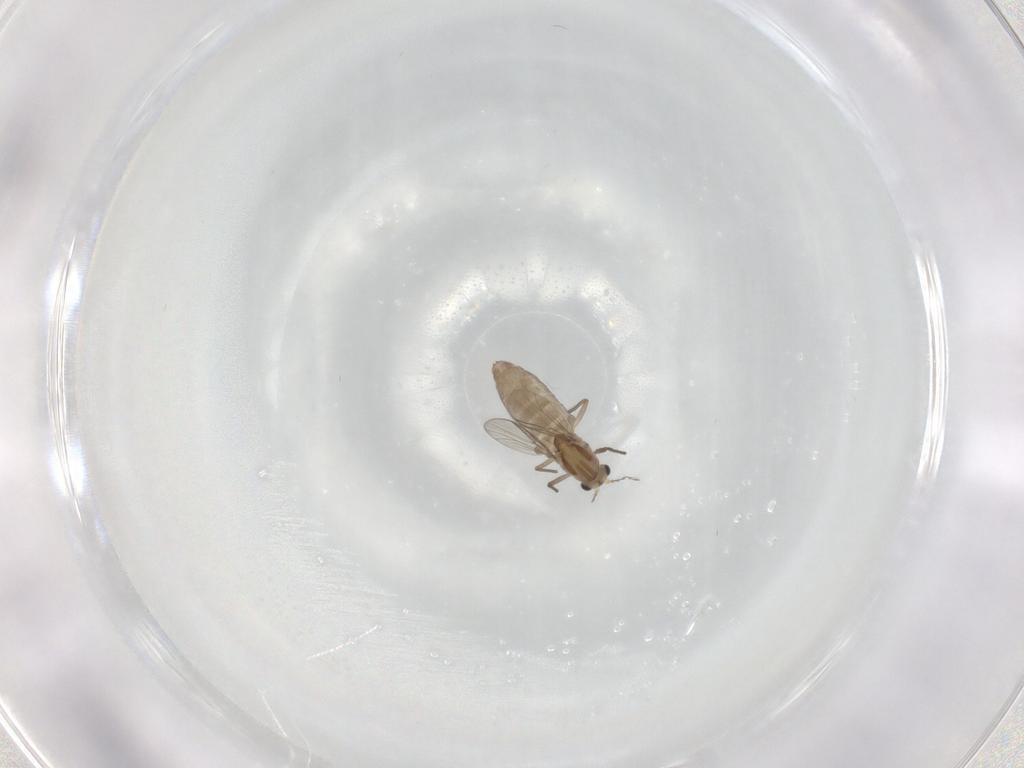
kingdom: Animalia
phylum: Arthropoda
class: Insecta
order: Diptera
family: Chironomidae
